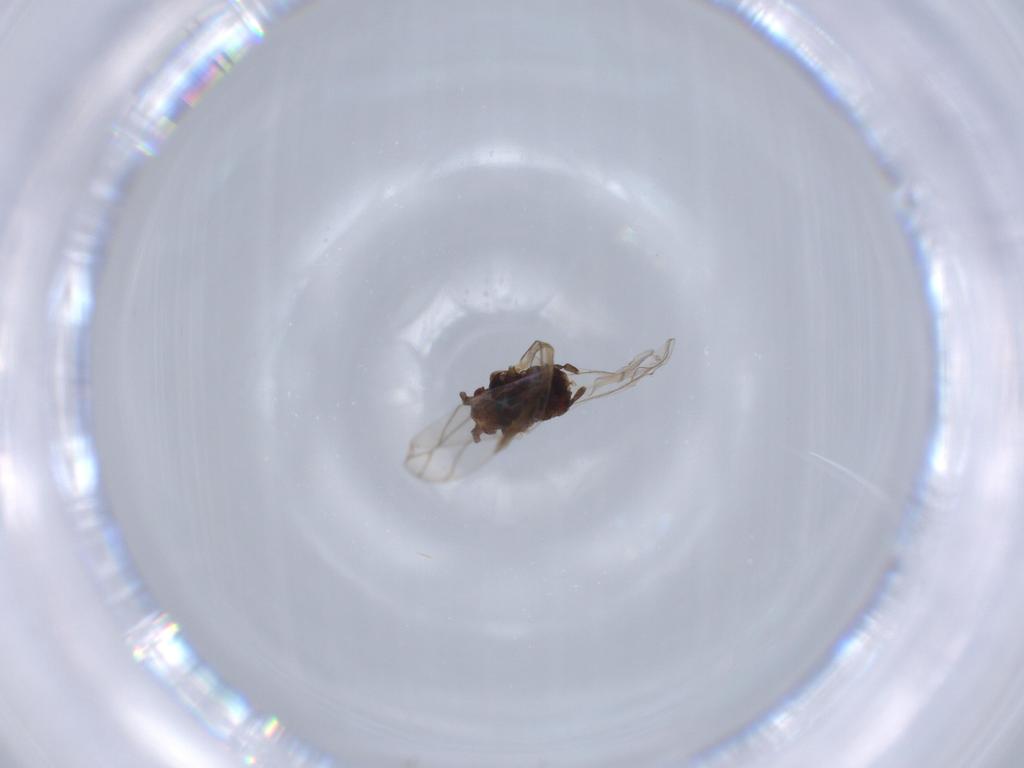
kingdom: Animalia
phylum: Arthropoda
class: Insecta
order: Hemiptera
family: Aphididae
